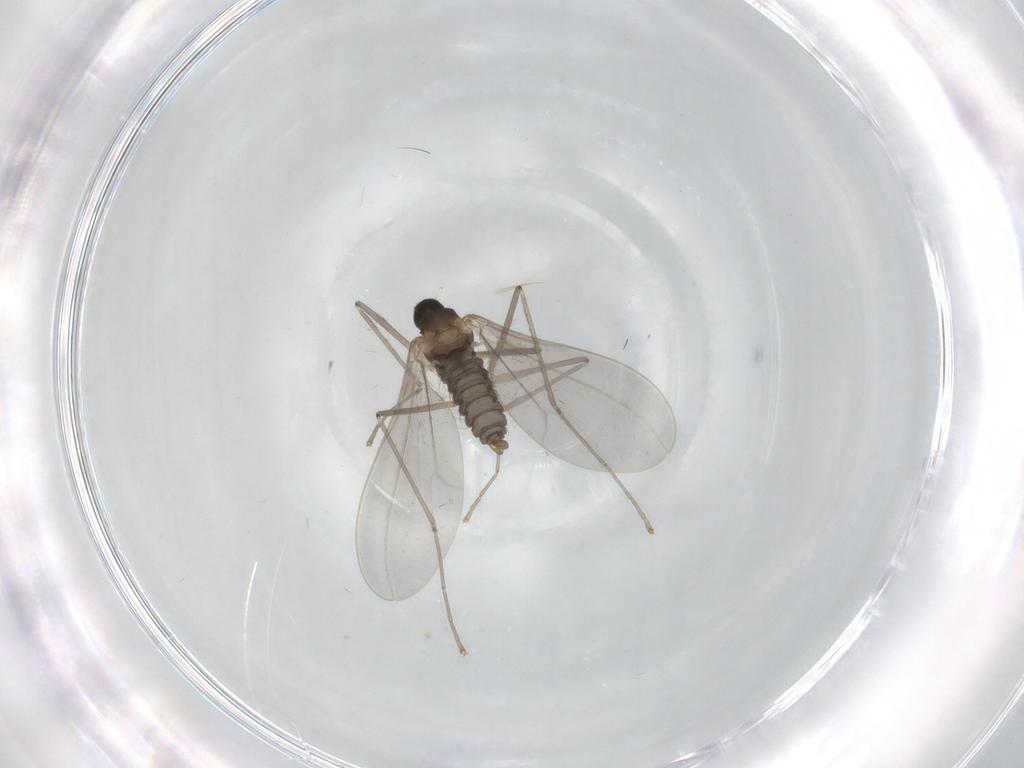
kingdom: Animalia
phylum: Arthropoda
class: Insecta
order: Diptera
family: Cecidomyiidae
